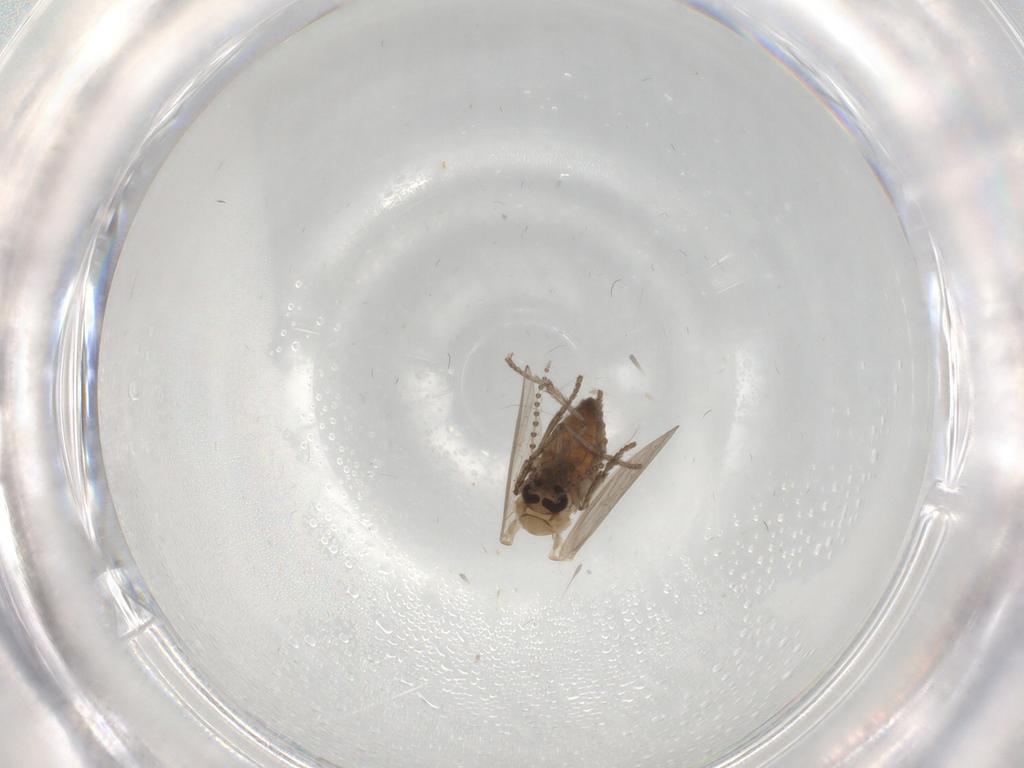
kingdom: Animalia
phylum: Arthropoda
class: Insecta
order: Diptera
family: Psychodidae
